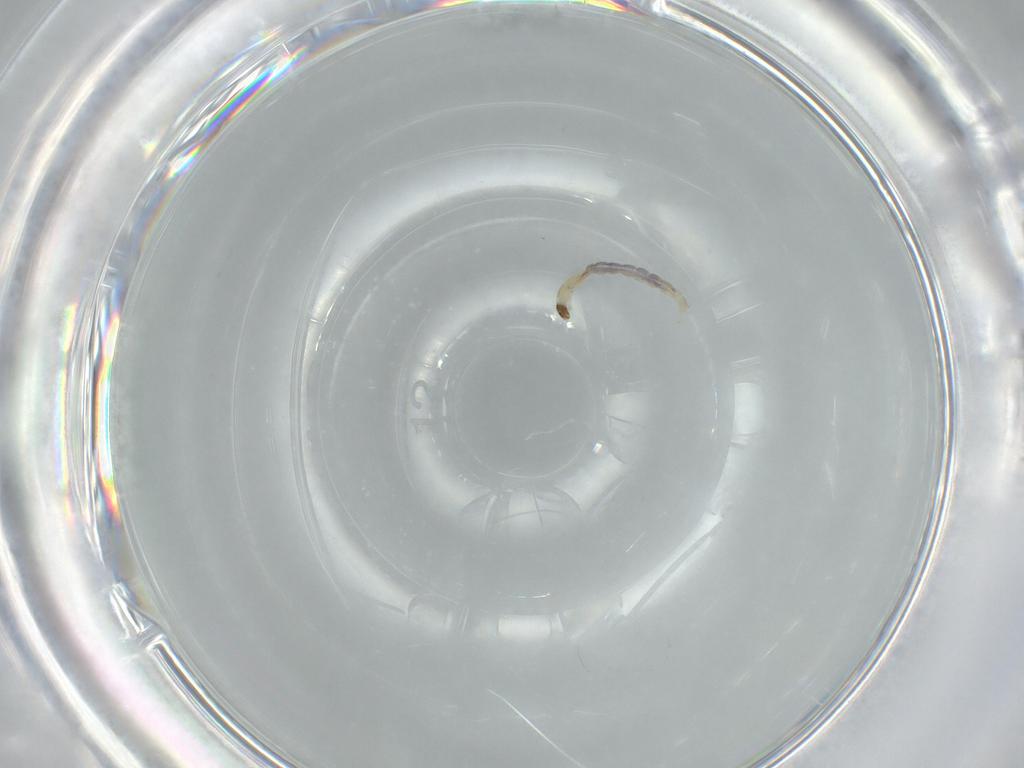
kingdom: Animalia
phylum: Arthropoda
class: Insecta
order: Diptera
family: Chironomidae
